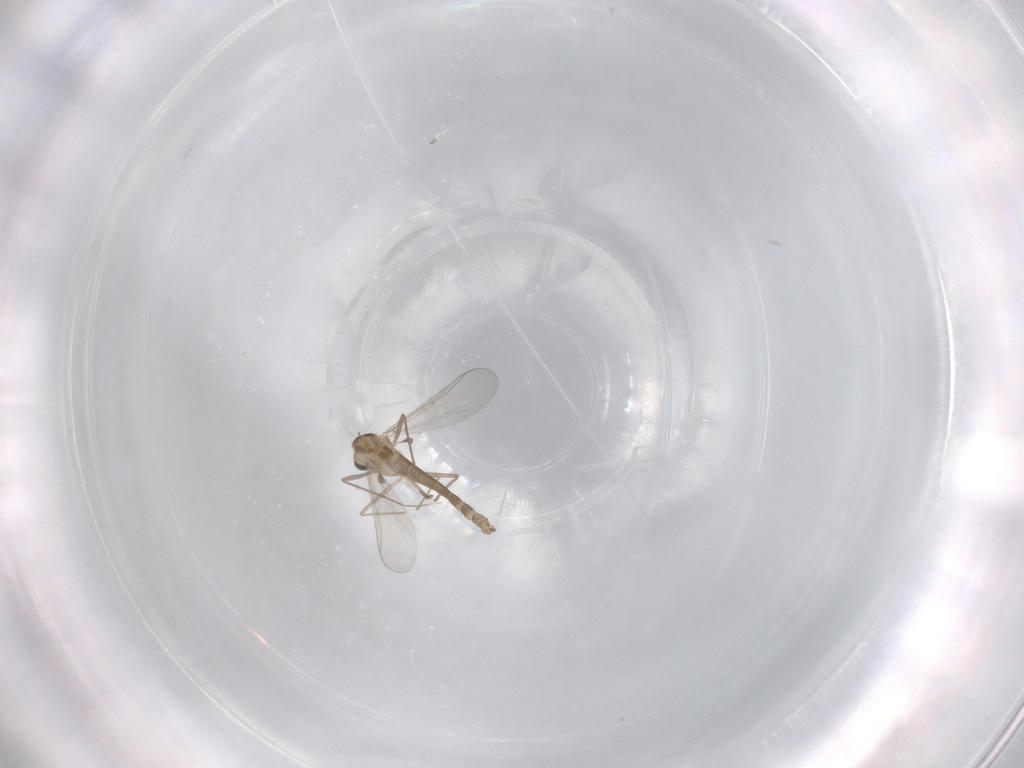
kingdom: Animalia
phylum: Arthropoda
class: Insecta
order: Diptera
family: Chironomidae
